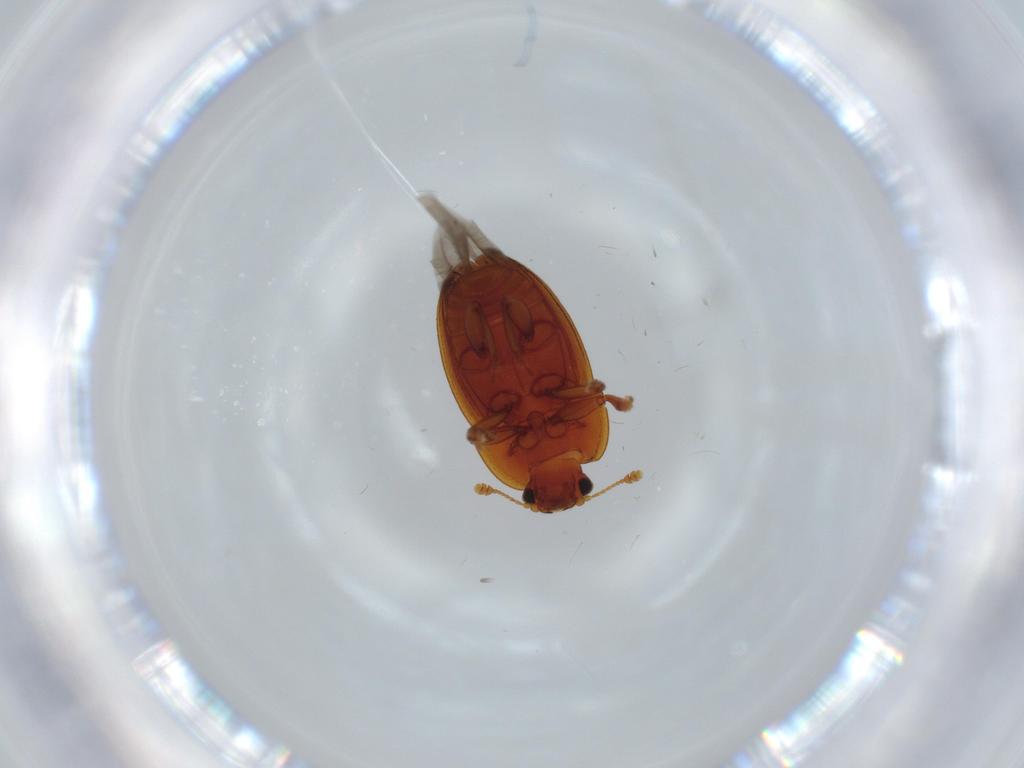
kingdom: Animalia
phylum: Arthropoda
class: Insecta
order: Coleoptera
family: Nitidulidae
